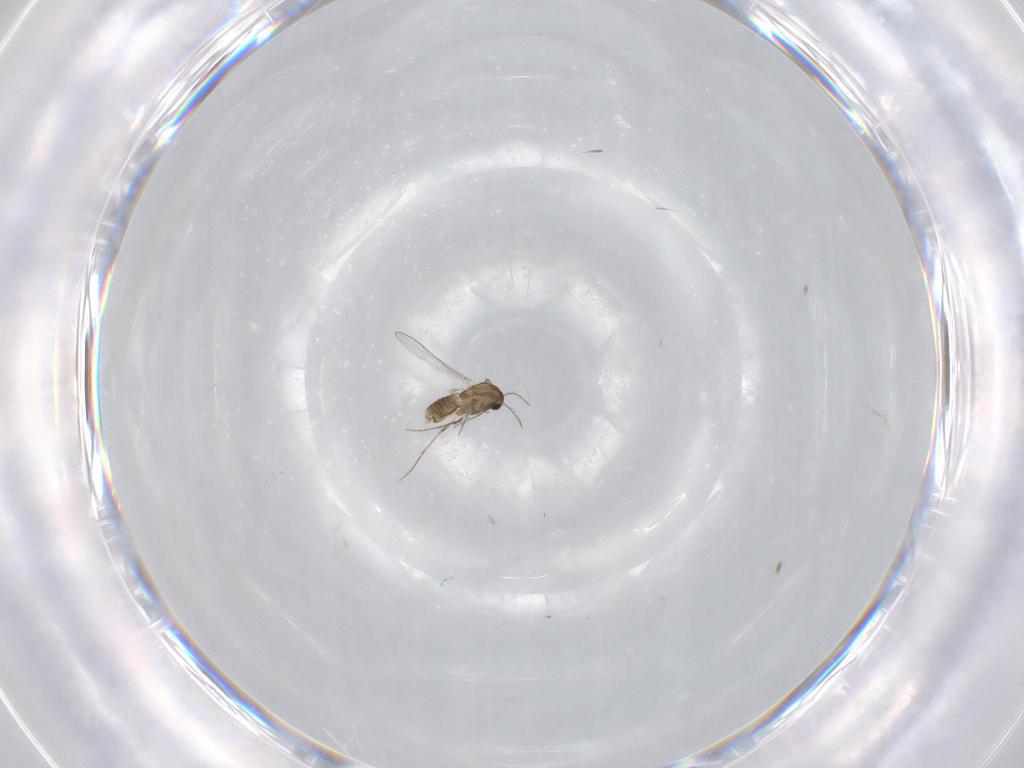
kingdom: Animalia
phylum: Arthropoda
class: Insecta
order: Diptera
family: Chironomidae
